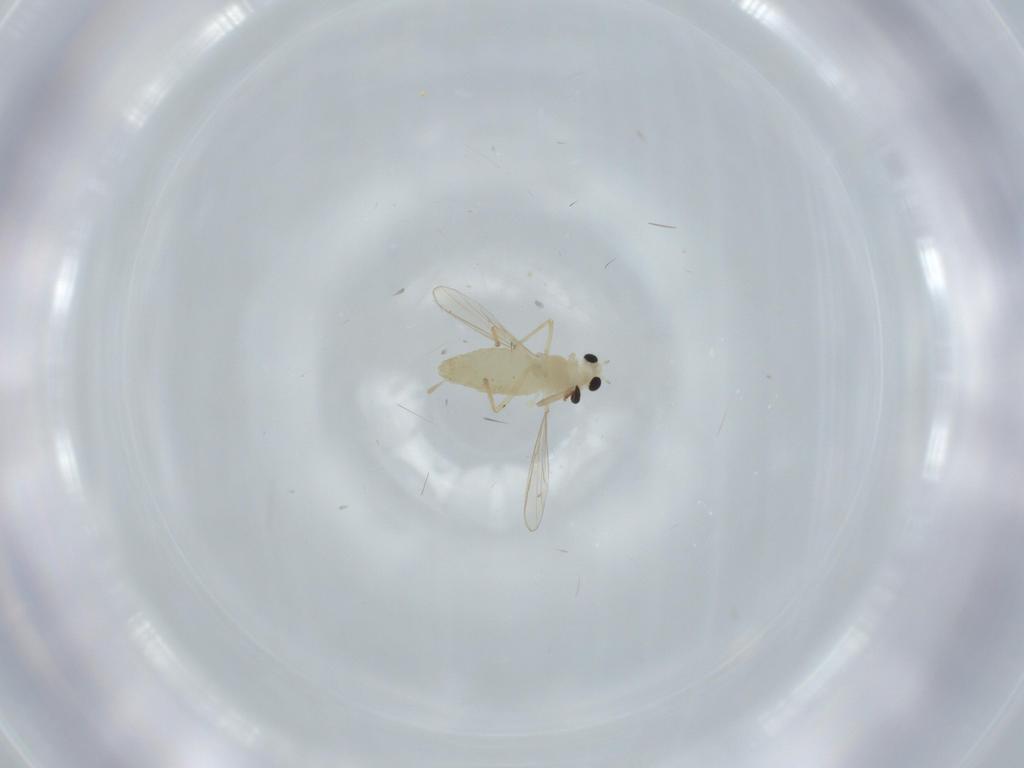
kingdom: Animalia
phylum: Arthropoda
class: Insecta
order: Diptera
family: Chironomidae
